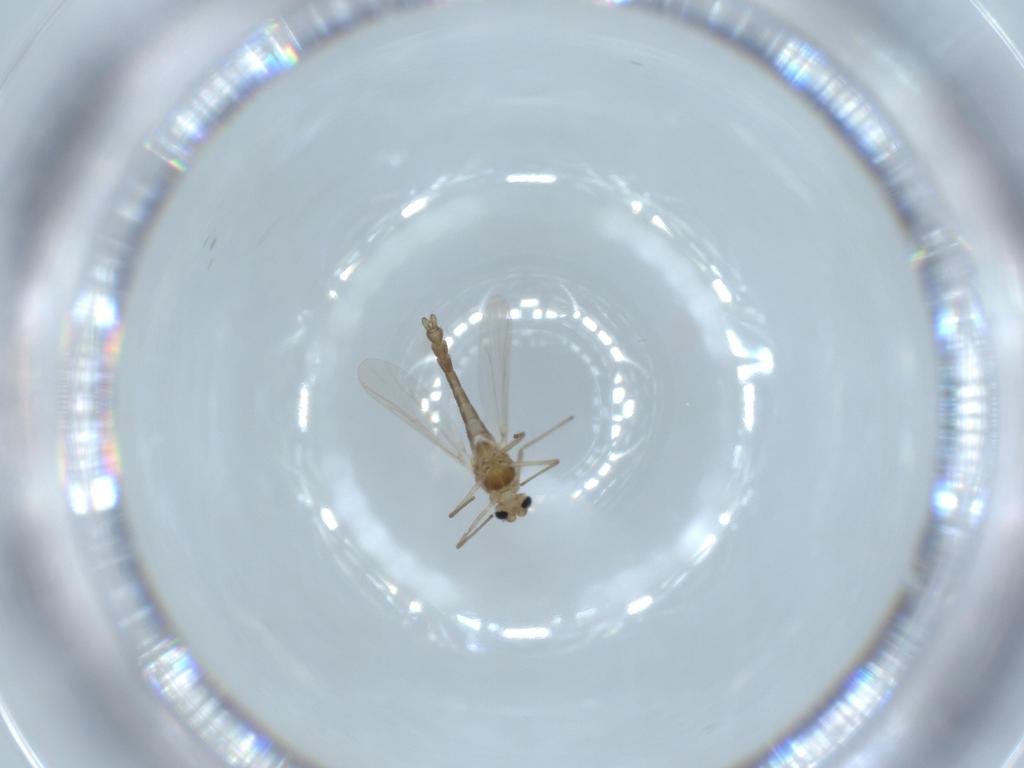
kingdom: Animalia
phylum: Arthropoda
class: Insecta
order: Diptera
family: Chironomidae
